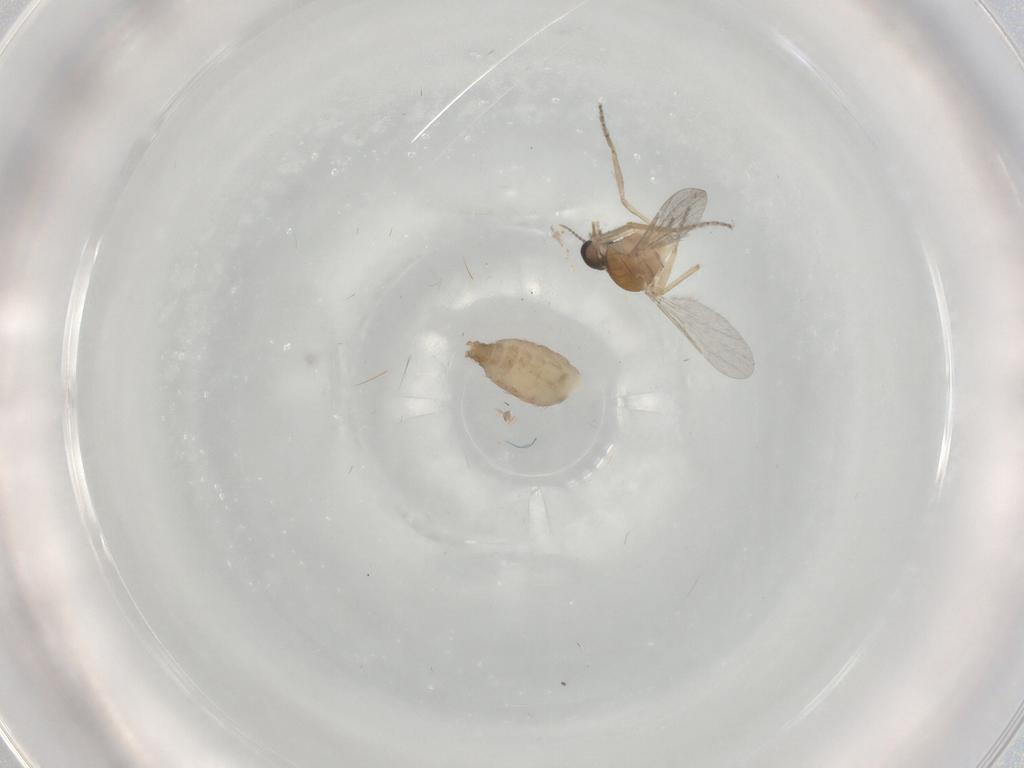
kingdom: Animalia
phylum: Arthropoda
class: Insecta
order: Diptera
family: Ceratopogonidae
